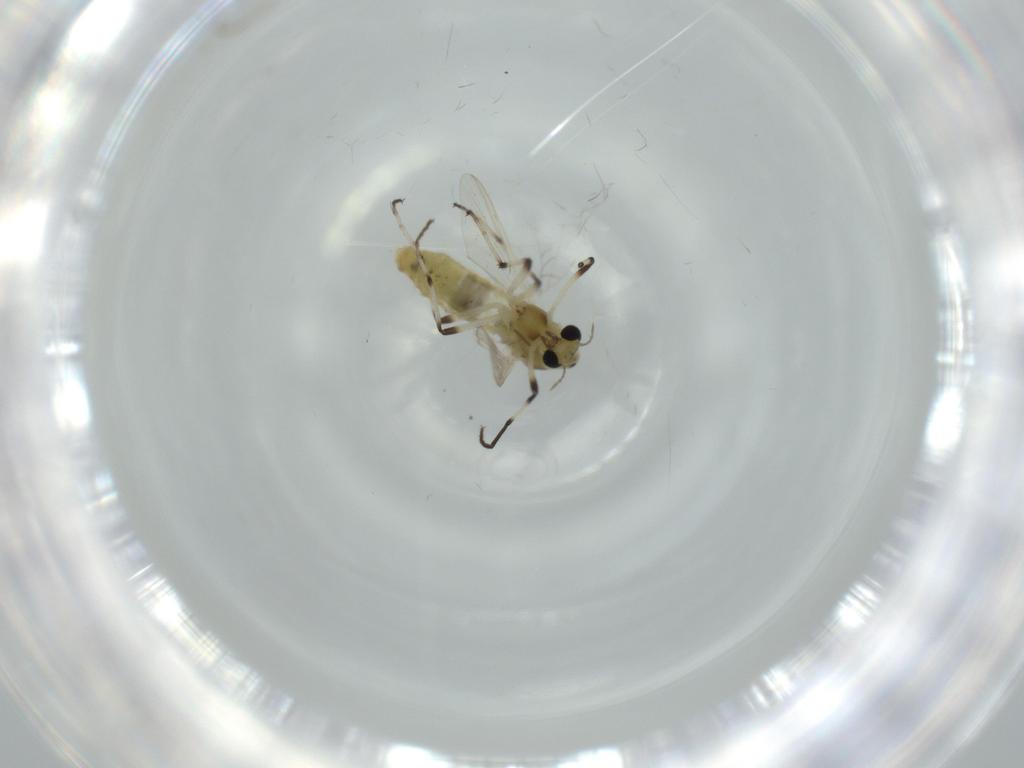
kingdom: Animalia
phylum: Arthropoda
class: Insecta
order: Diptera
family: Chironomidae
